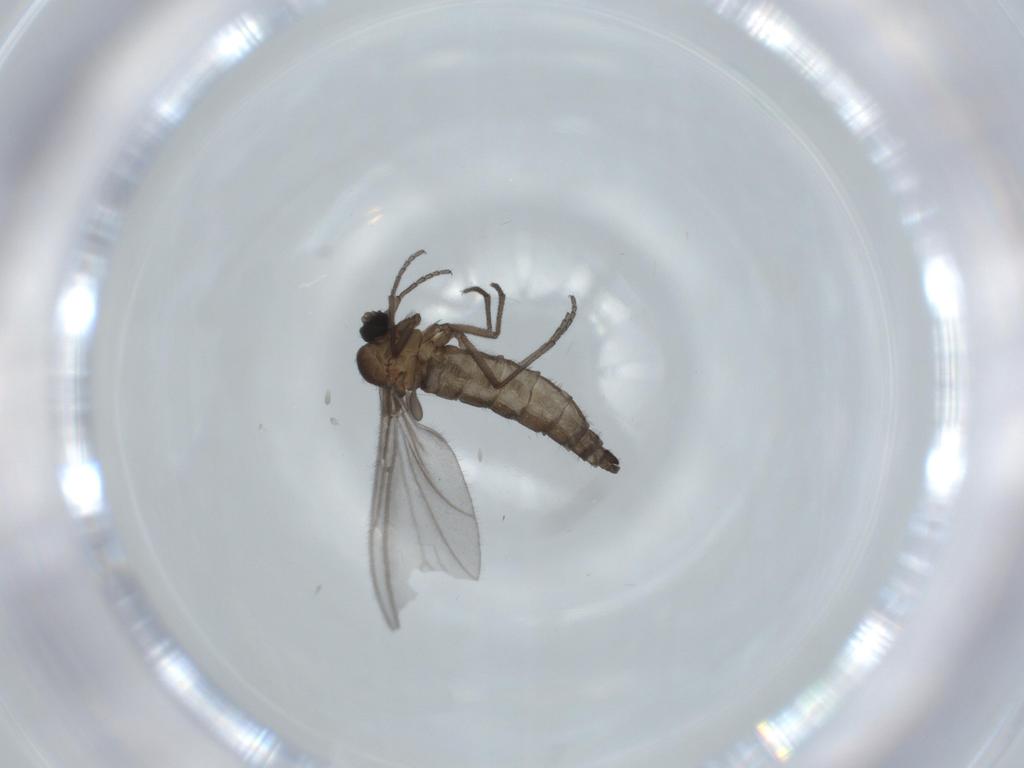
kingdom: Animalia
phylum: Arthropoda
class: Insecta
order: Diptera
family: Sciaridae
